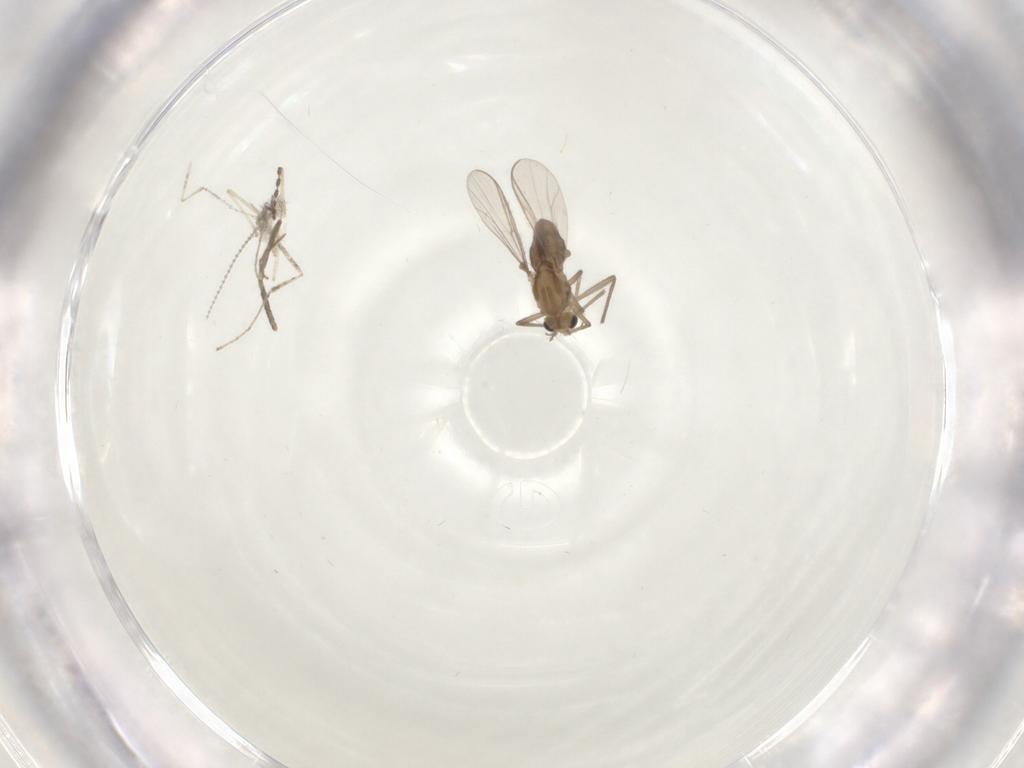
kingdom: Animalia
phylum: Arthropoda
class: Insecta
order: Diptera
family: Chironomidae
